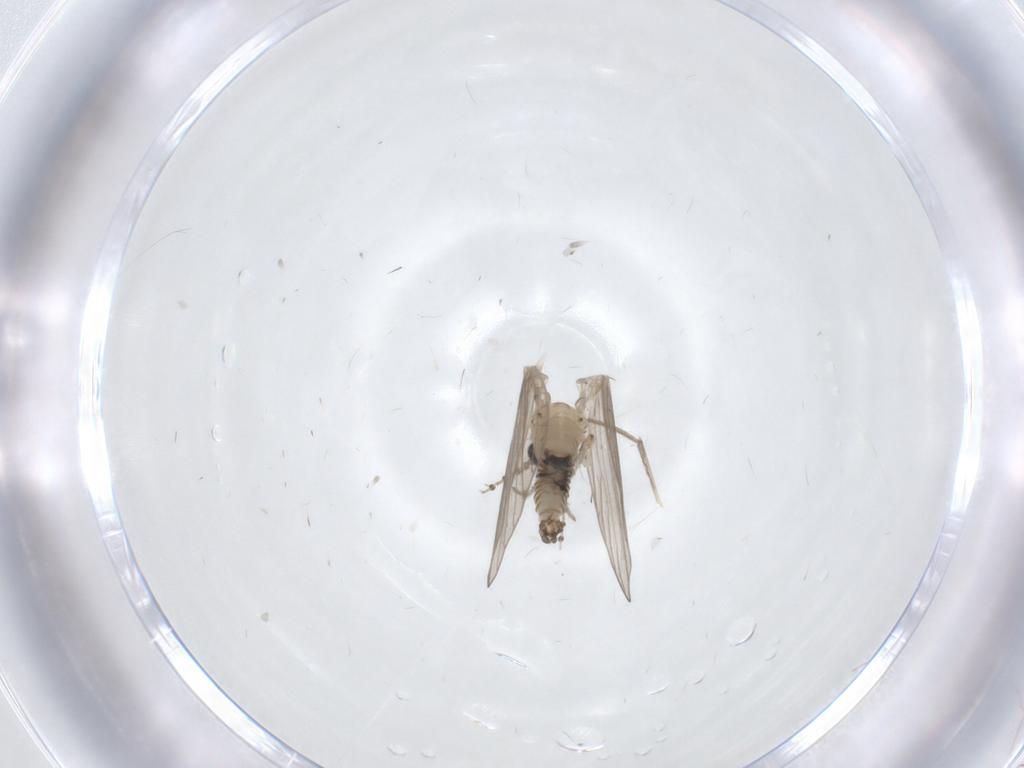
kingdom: Animalia
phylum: Arthropoda
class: Insecta
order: Diptera
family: Psychodidae
